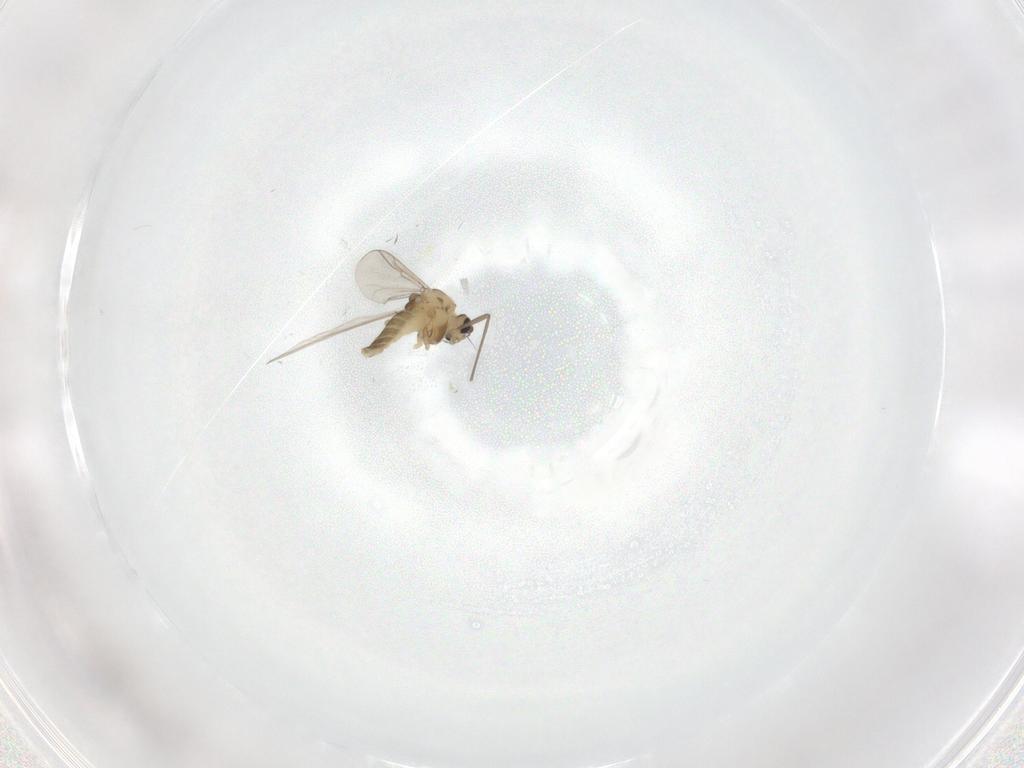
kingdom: Animalia
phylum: Arthropoda
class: Insecta
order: Diptera
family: Chironomidae
